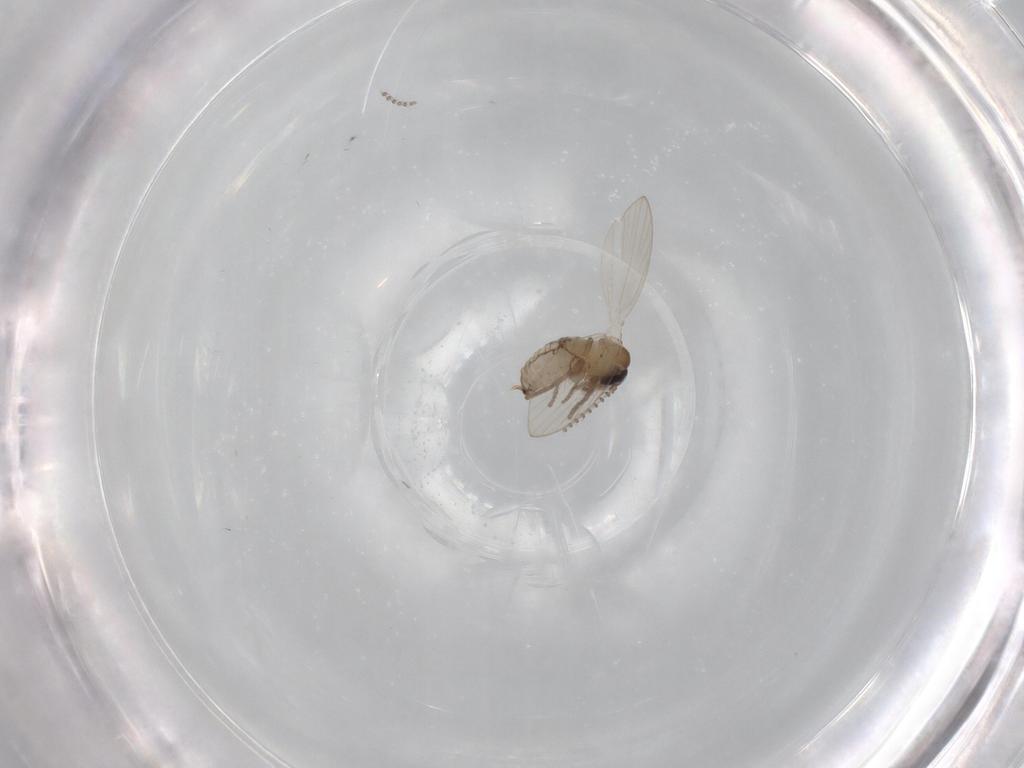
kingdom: Animalia
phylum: Arthropoda
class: Insecta
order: Diptera
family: Psychodidae
